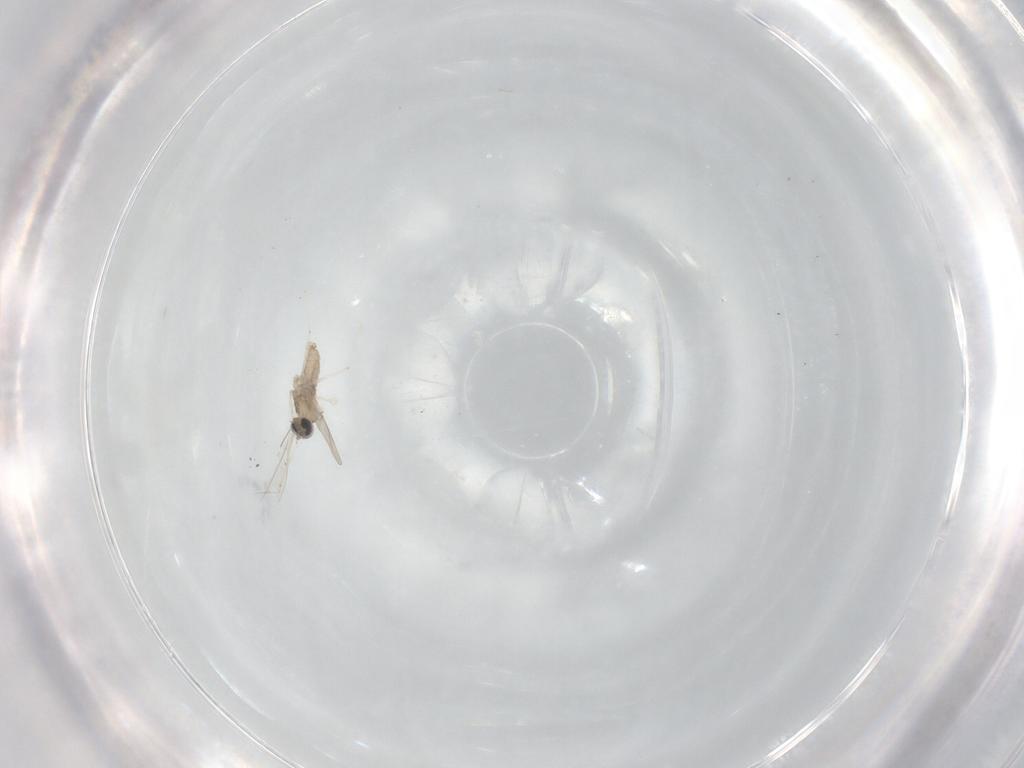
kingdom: Animalia
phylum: Arthropoda
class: Insecta
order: Diptera
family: Cecidomyiidae
